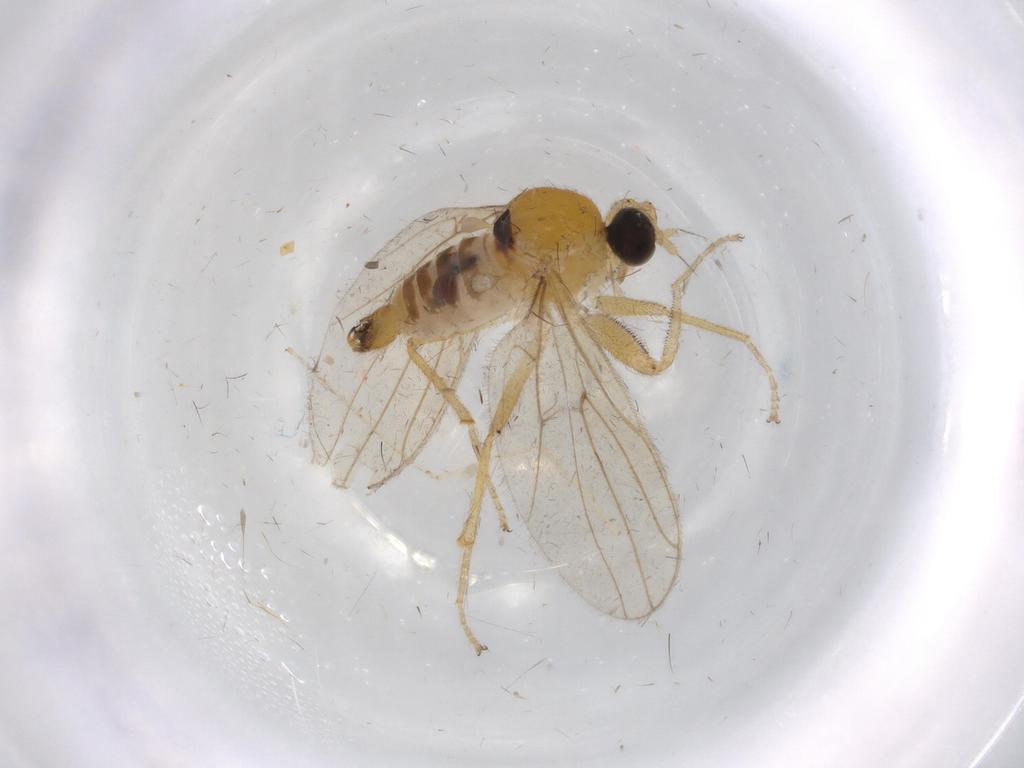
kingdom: Animalia
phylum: Arthropoda
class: Insecta
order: Diptera
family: Hybotidae
